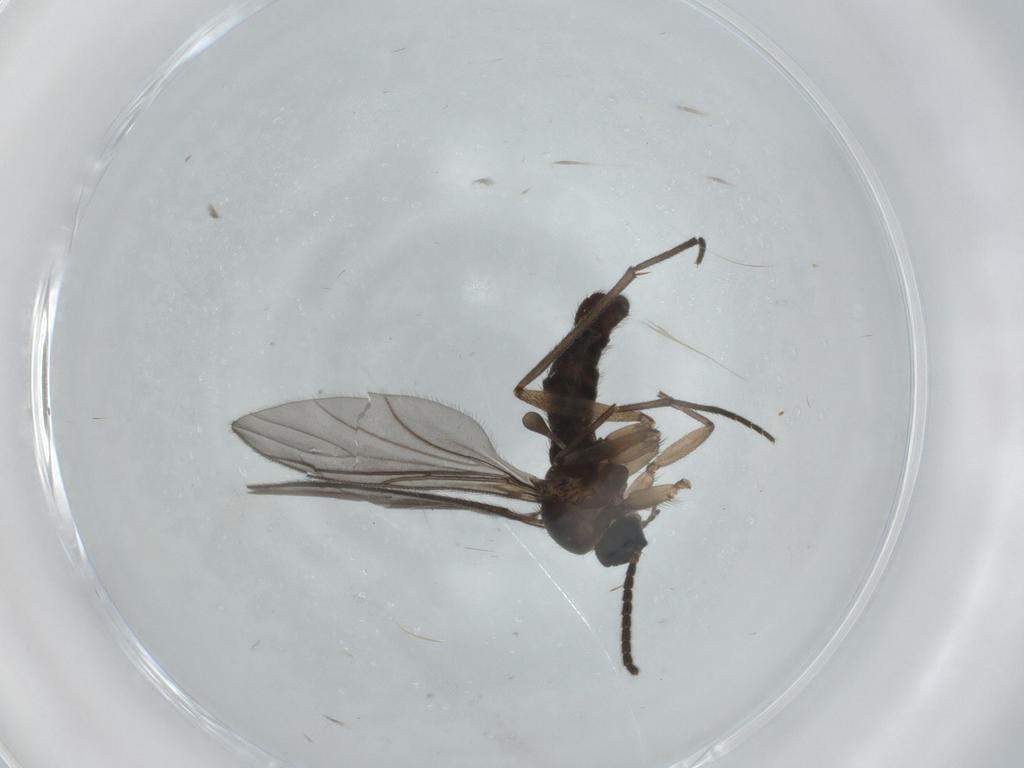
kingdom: Animalia
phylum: Arthropoda
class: Insecta
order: Diptera
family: Sciaridae
